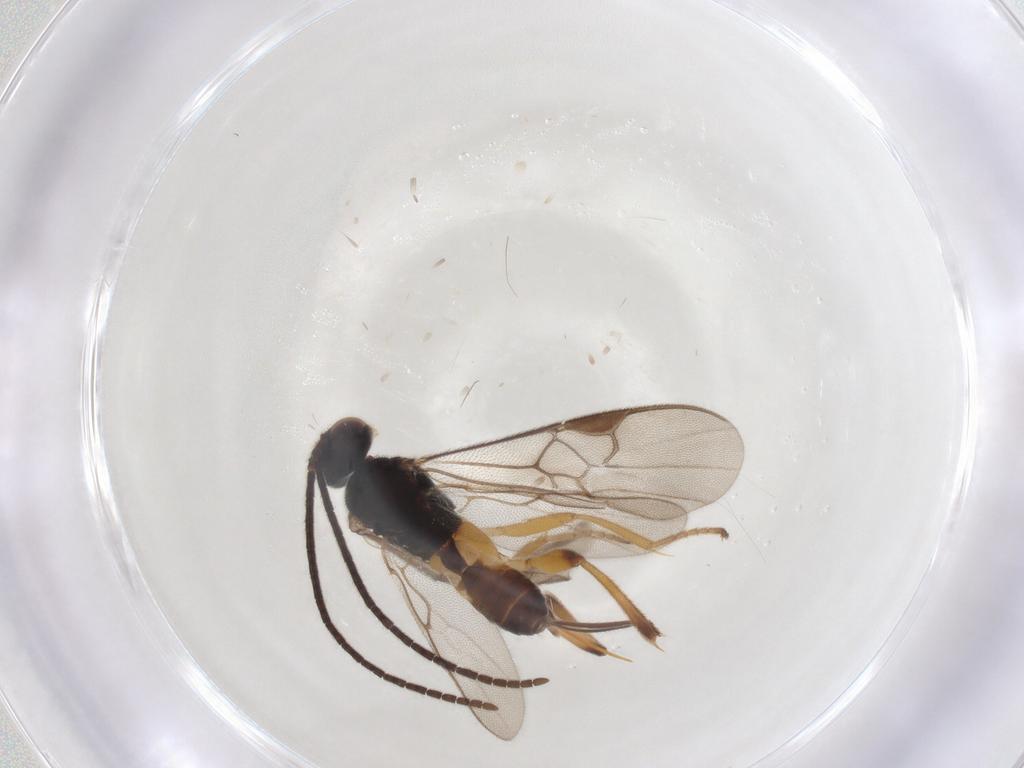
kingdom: Animalia
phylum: Arthropoda
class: Insecta
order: Hymenoptera
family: Braconidae
